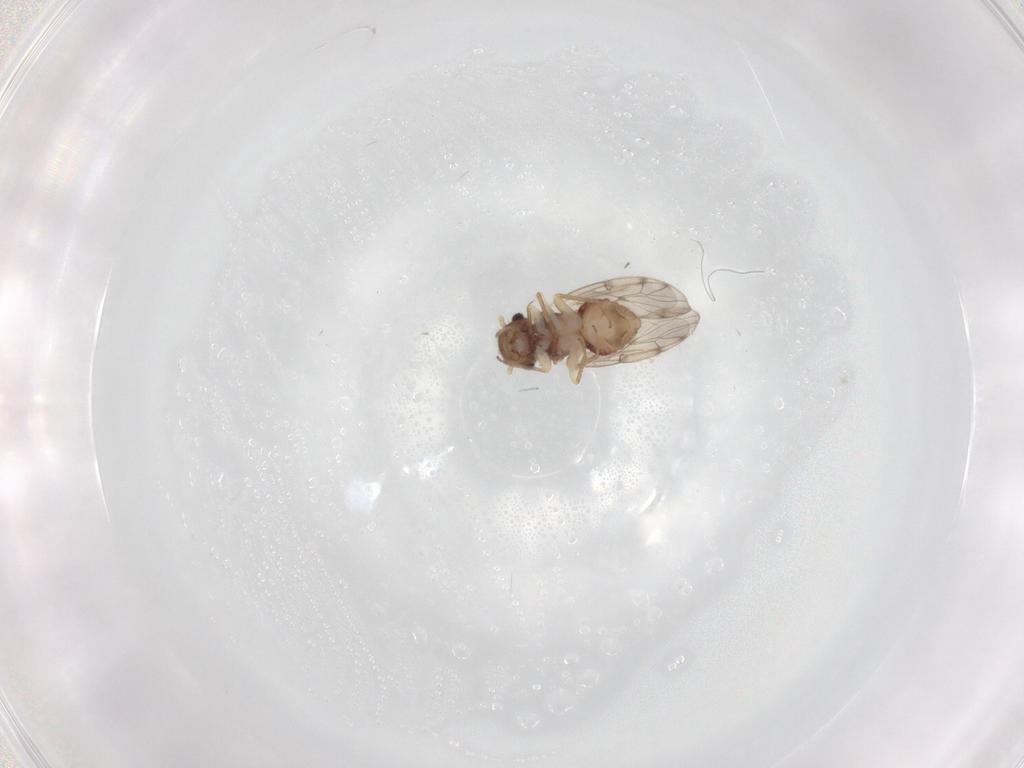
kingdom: Animalia
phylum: Arthropoda
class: Insecta
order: Psocodea
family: Peripsocidae
